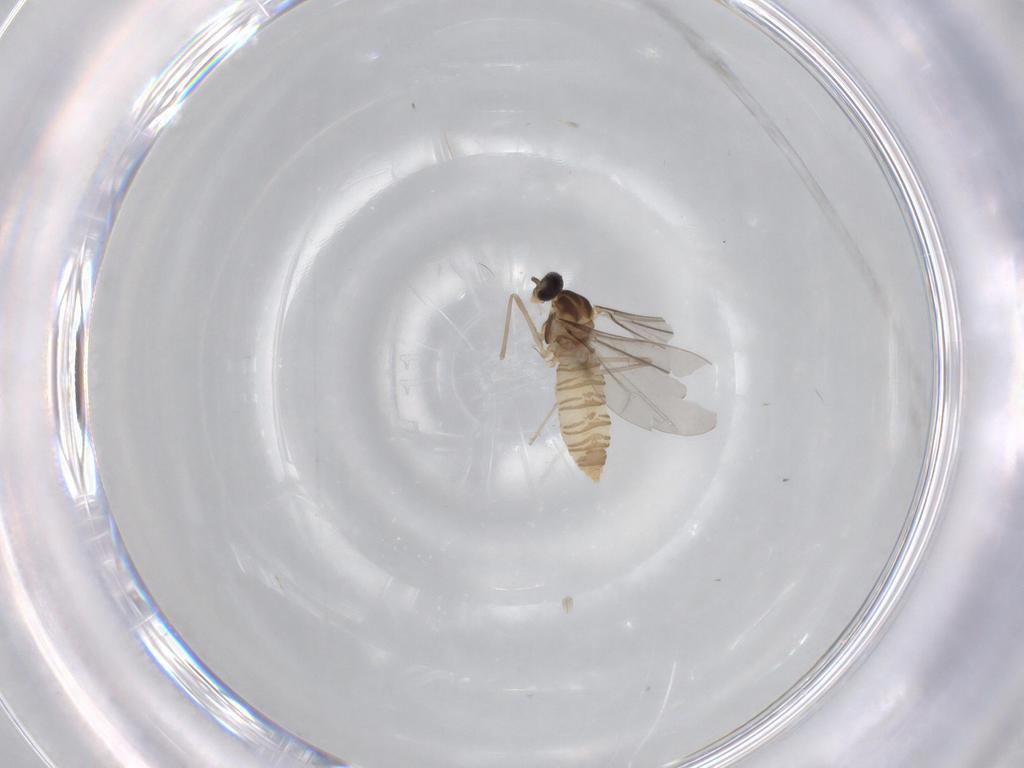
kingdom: Animalia
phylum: Arthropoda
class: Insecta
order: Diptera
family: Cecidomyiidae
